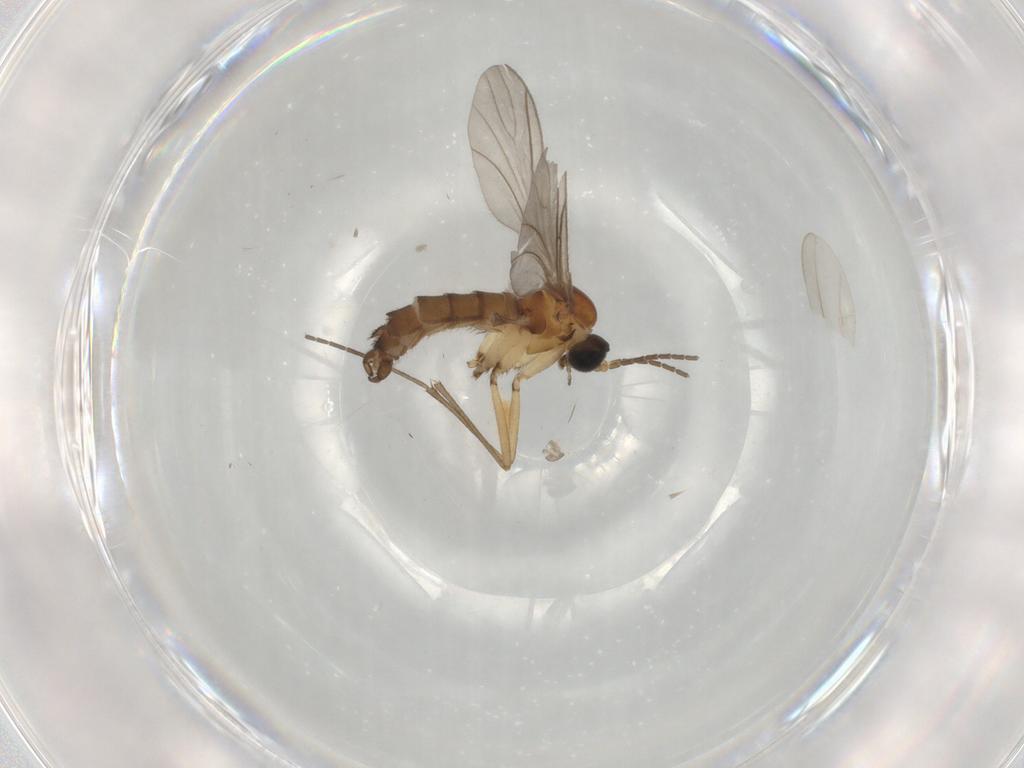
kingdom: Animalia
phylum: Arthropoda
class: Insecta
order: Diptera
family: Sciaridae
